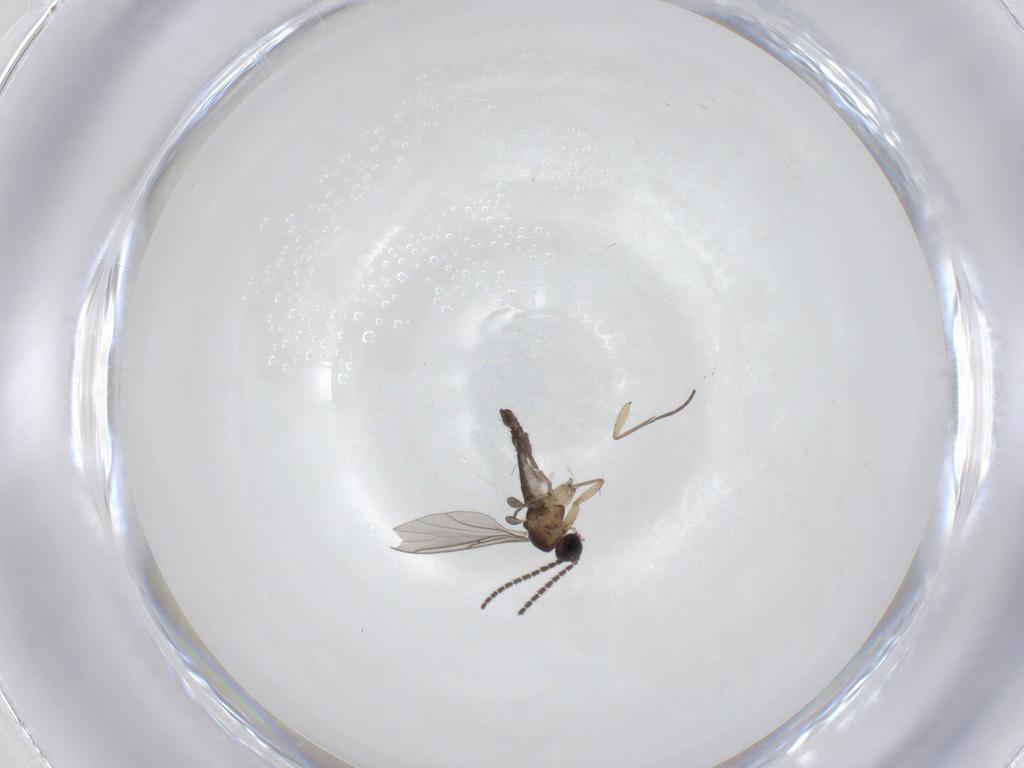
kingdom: Animalia
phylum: Arthropoda
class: Insecta
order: Diptera
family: Sciaridae
